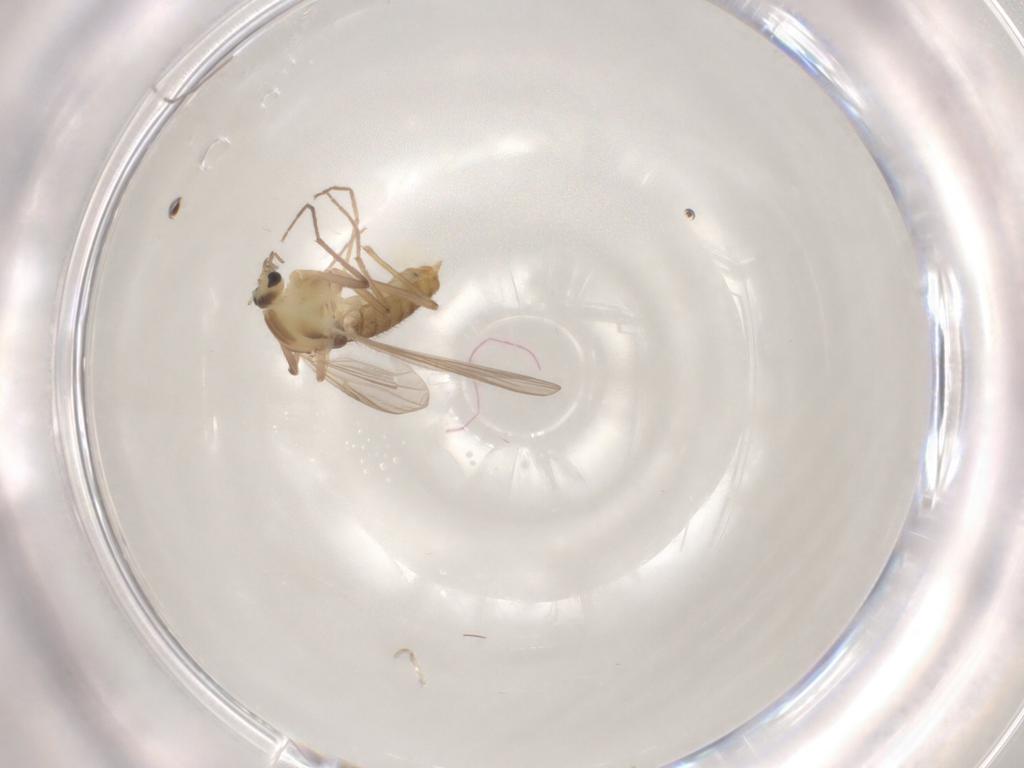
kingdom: Animalia
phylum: Arthropoda
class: Insecta
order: Diptera
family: Chironomidae
